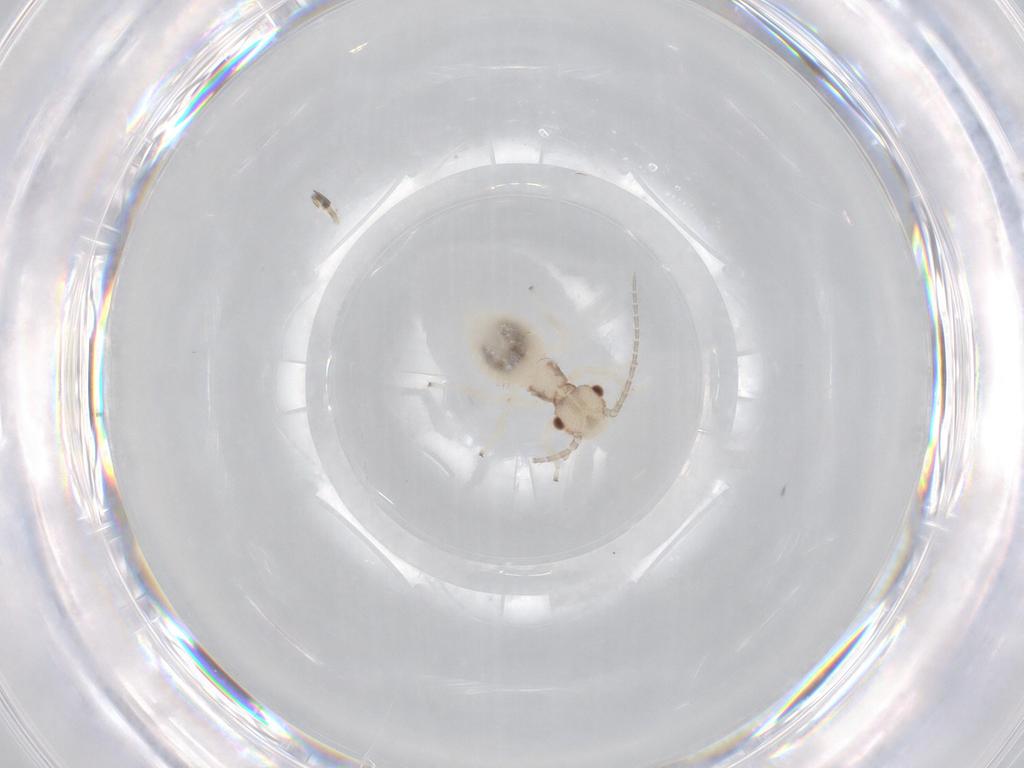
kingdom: Animalia
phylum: Arthropoda
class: Insecta
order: Psocodea
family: Amphipsocidae
